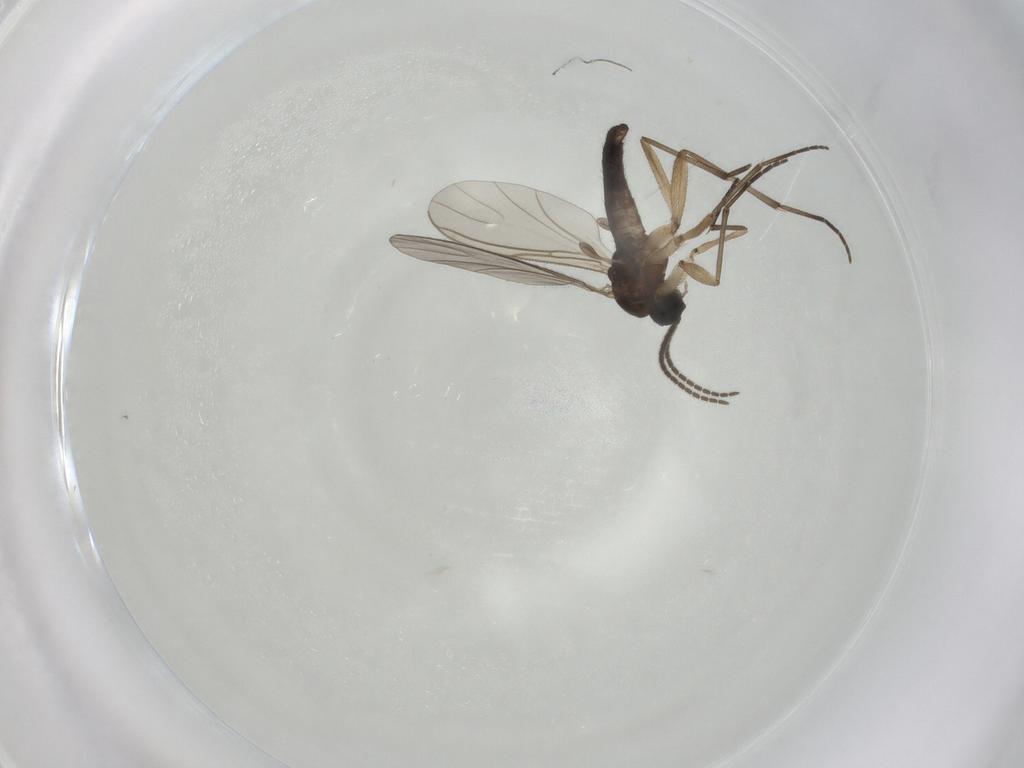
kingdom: Animalia
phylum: Arthropoda
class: Insecta
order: Diptera
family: Sciaridae
